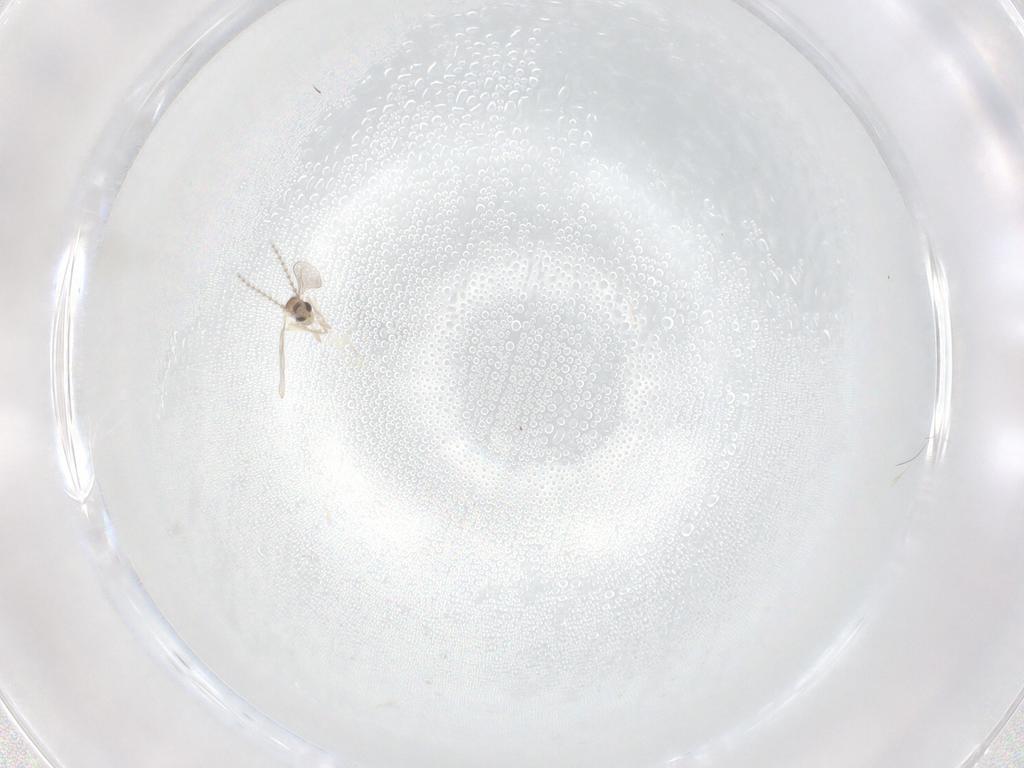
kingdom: Animalia
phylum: Arthropoda
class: Insecta
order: Diptera
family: Cecidomyiidae
